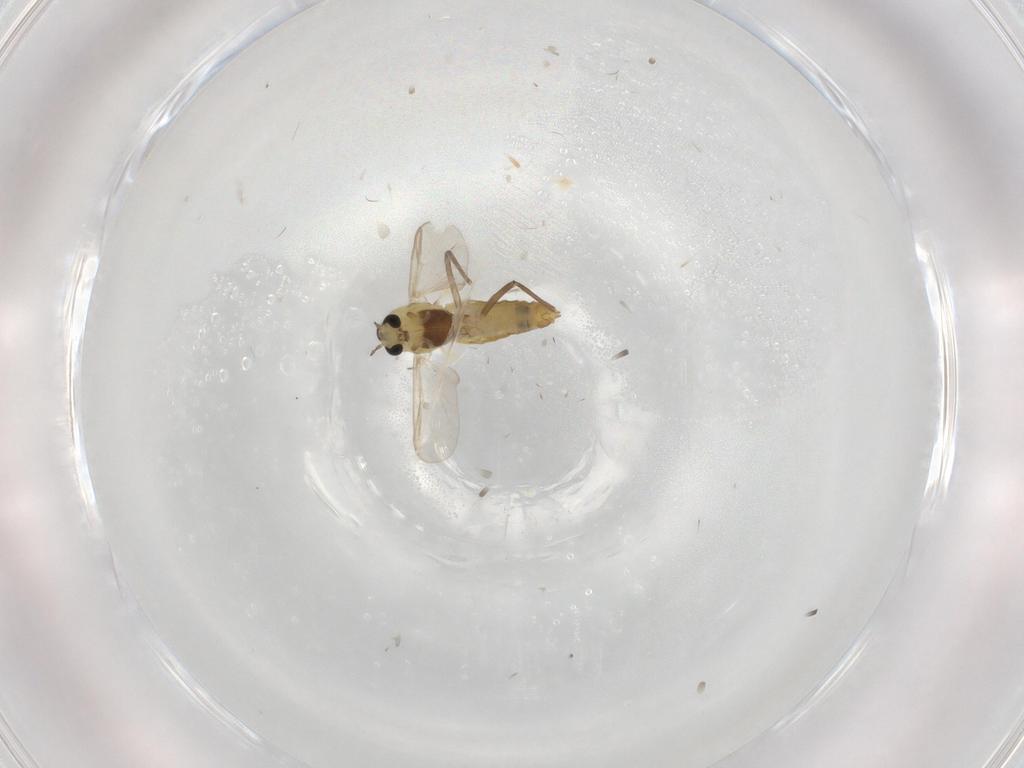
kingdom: Animalia
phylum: Arthropoda
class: Insecta
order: Diptera
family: Chironomidae
